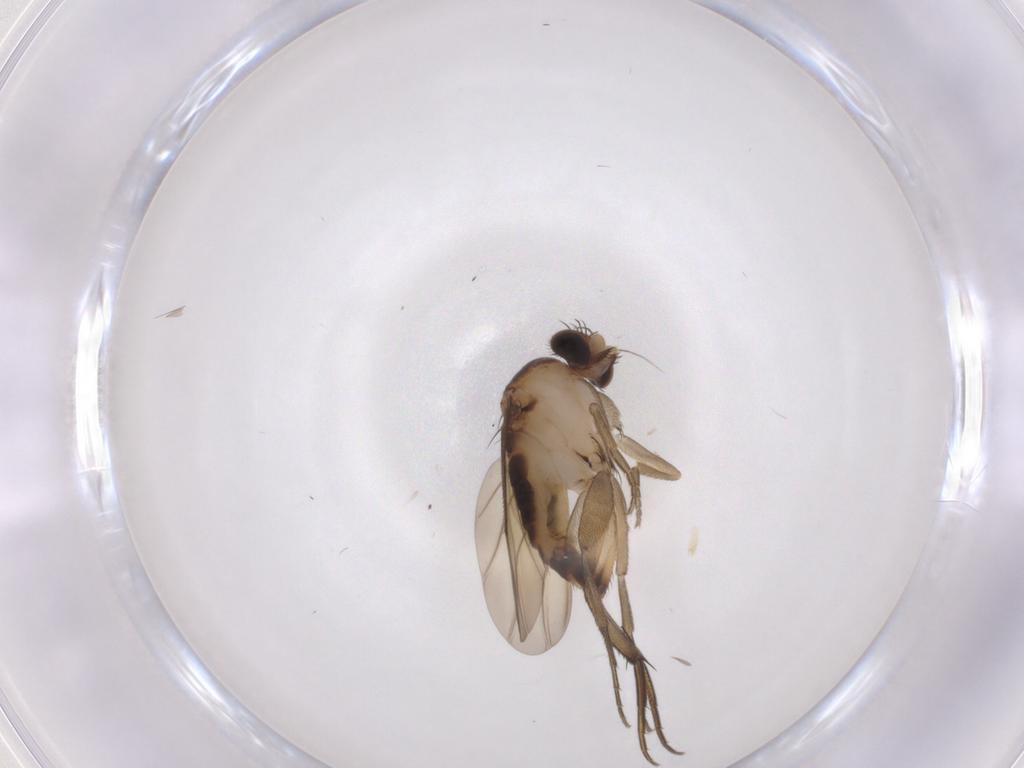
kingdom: Animalia
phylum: Arthropoda
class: Insecta
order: Diptera
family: Phoridae
